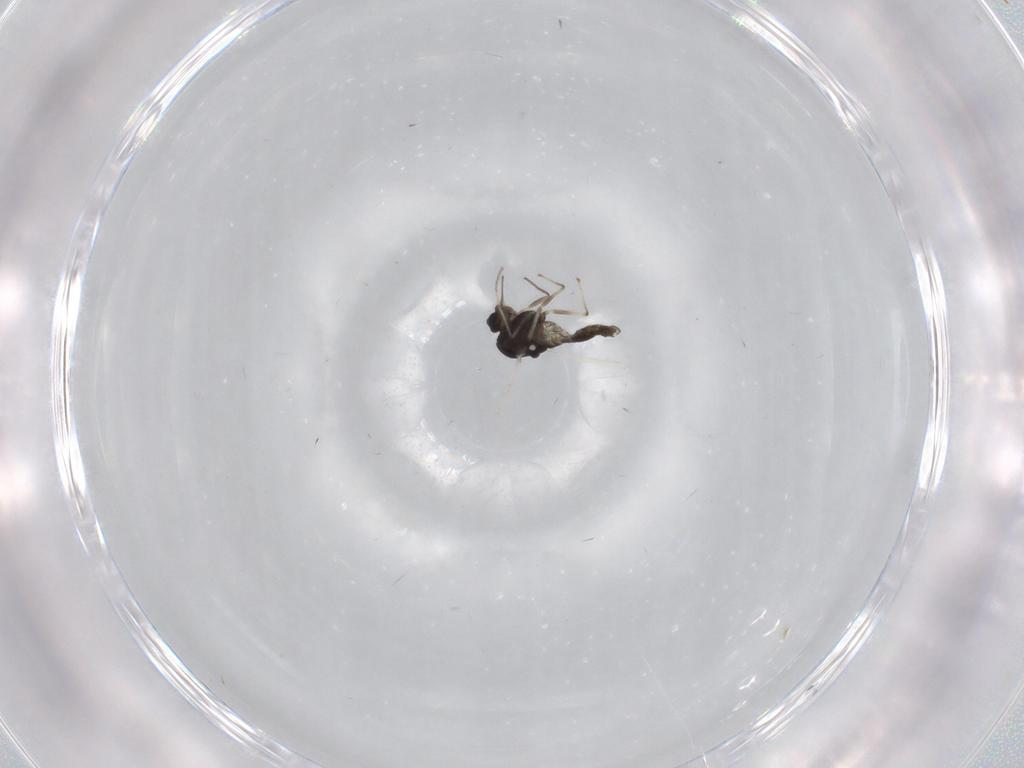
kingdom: Animalia
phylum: Arthropoda
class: Insecta
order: Diptera
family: Chironomidae
